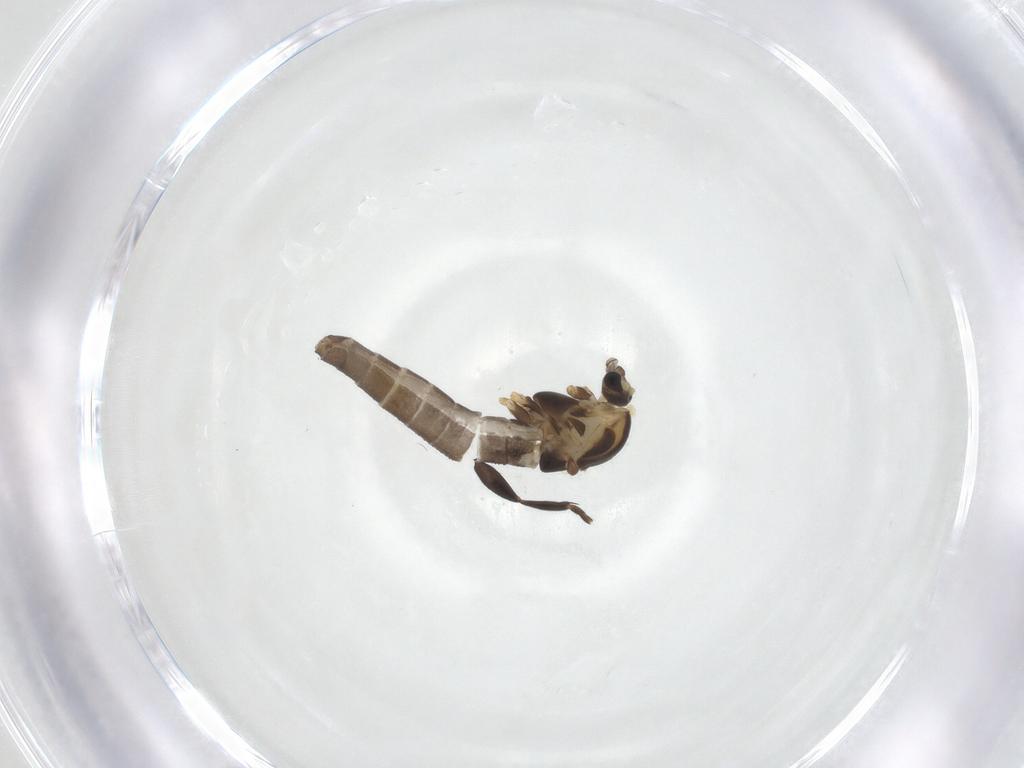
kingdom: Animalia
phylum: Arthropoda
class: Insecta
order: Diptera
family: Chironomidae
